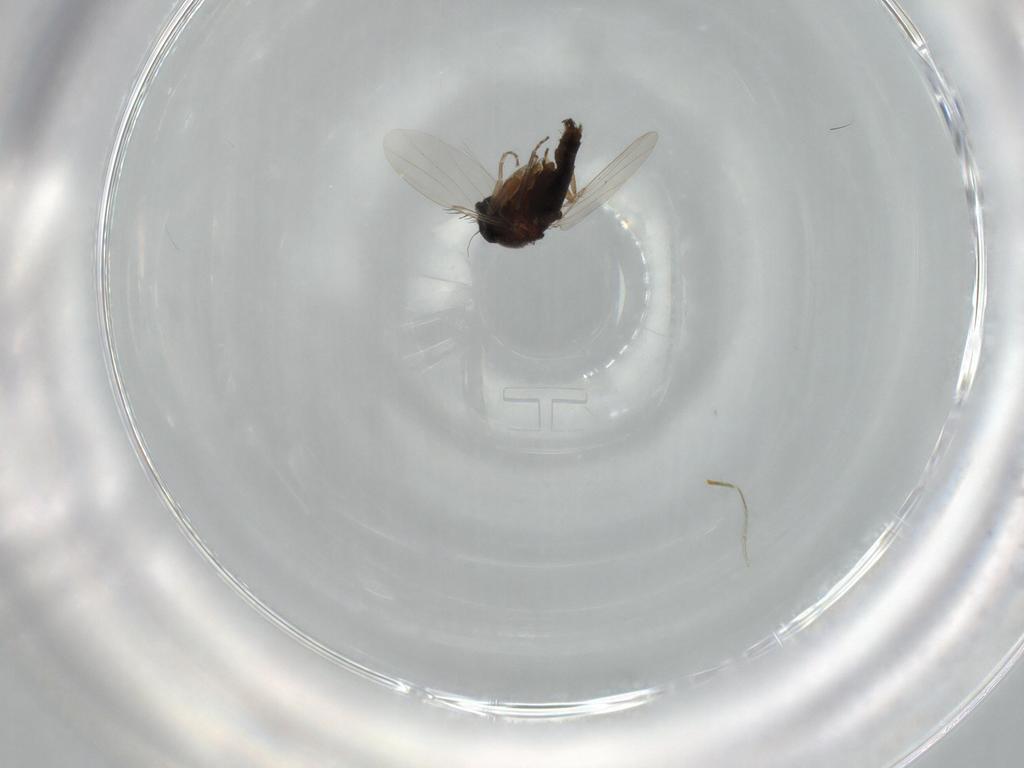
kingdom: Animalia
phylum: Arthropoda
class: Insecta
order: Diptera
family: Phoridae
